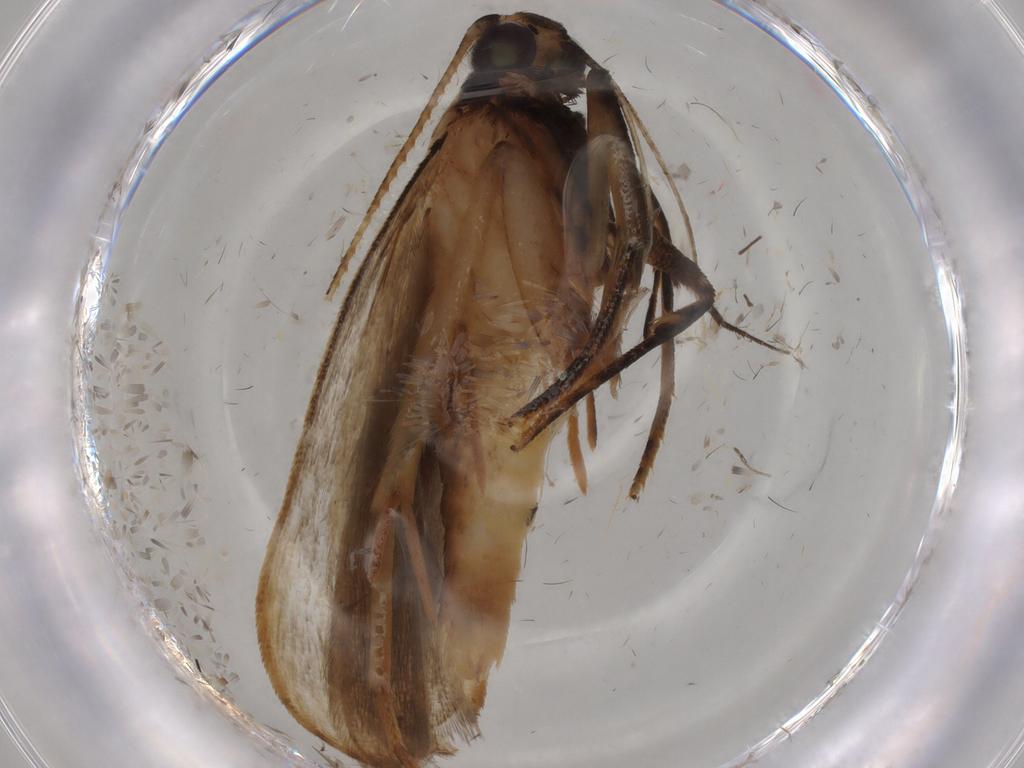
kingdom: Animalia
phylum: Arthropoda
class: Insecta
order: Diptera
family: Cecidomyiidae
